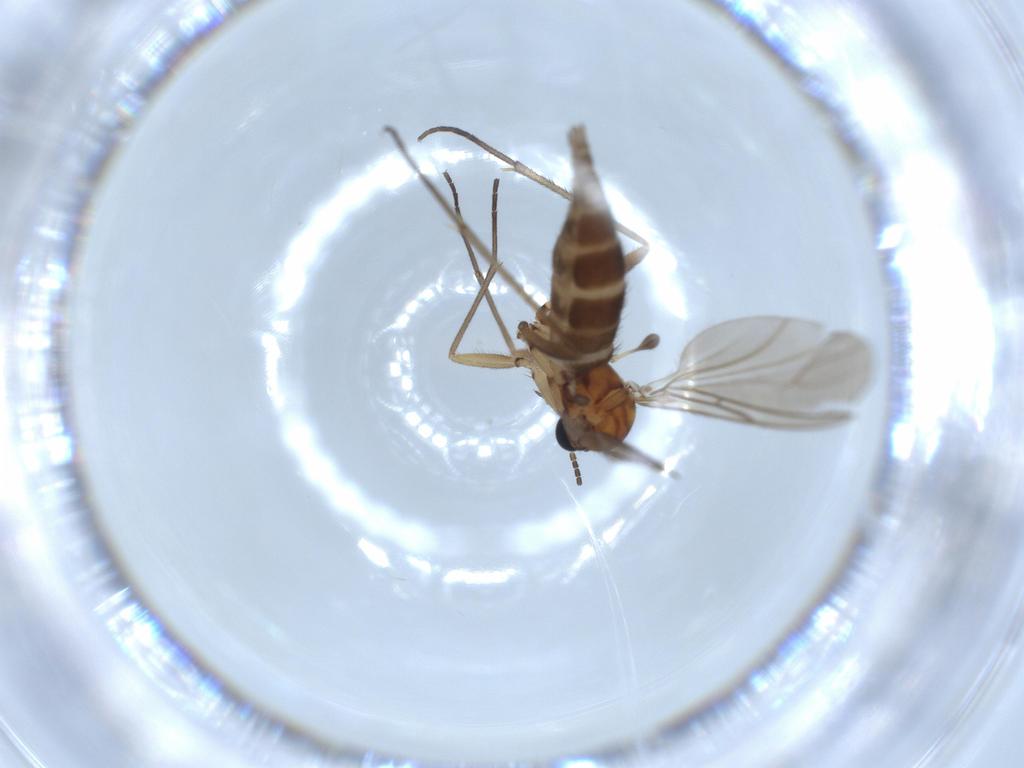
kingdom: Animalia
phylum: Arthropoda
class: Insecta
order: Diptera
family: Sciaridae
